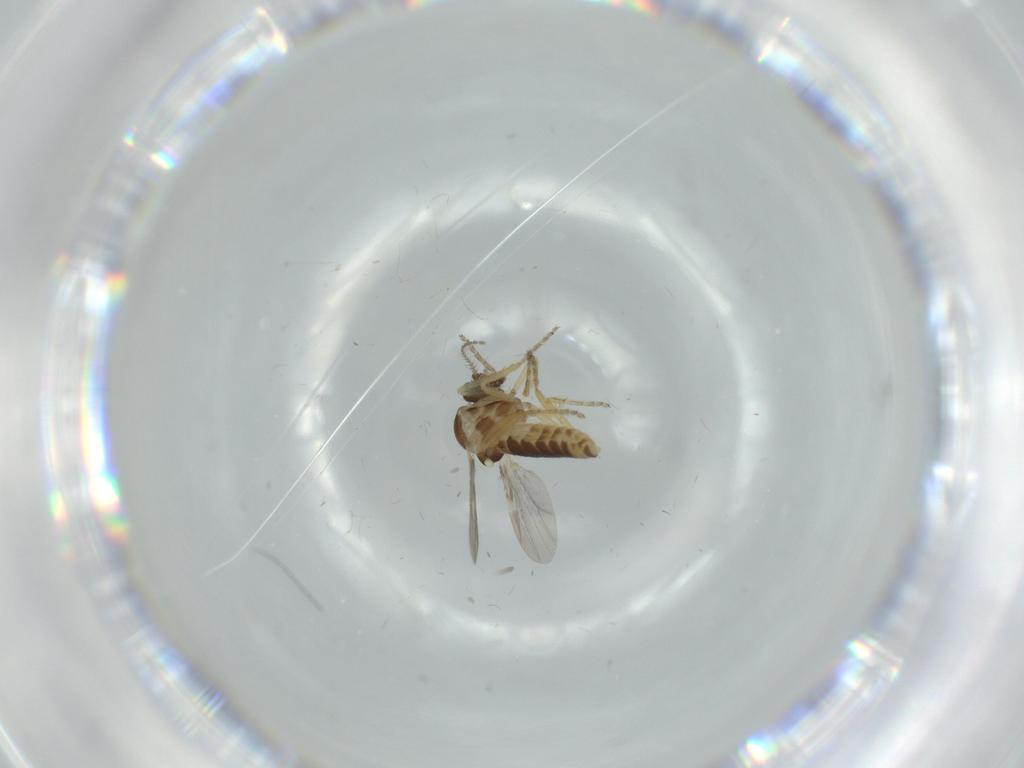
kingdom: Animalia
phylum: Arthropoda
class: Insecta
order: Diptera
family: Ceratopogonidae
